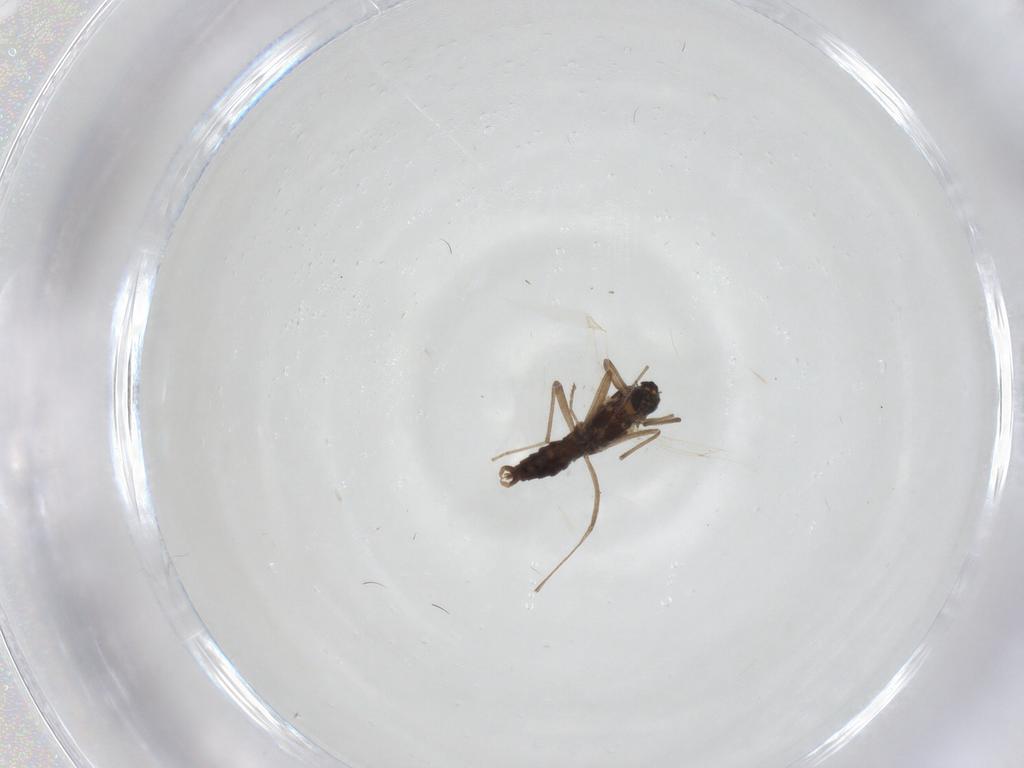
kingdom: Animalia
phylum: Arthropoda
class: Insecta
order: Diptera
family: Cecidomyiidae
